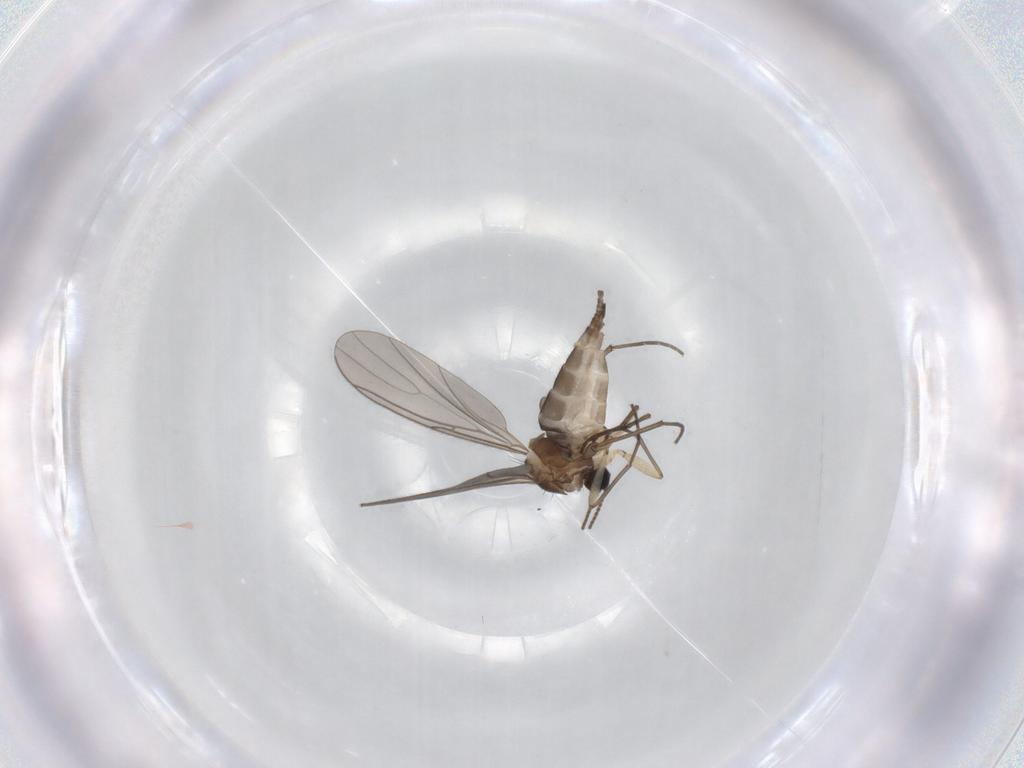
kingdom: Animalia
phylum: Arthropoda
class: Insecta
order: Diptera
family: Sciaridae
